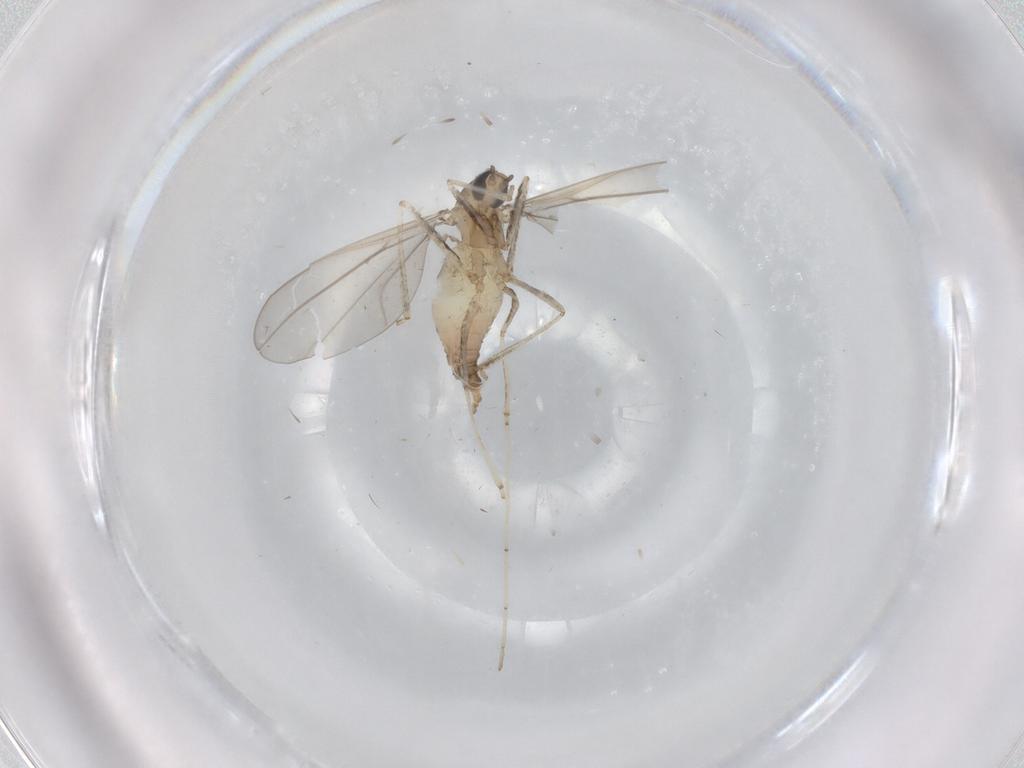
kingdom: Animalia
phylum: Arthropoda
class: Insecta
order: Diptera
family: Cecidomyiidae
